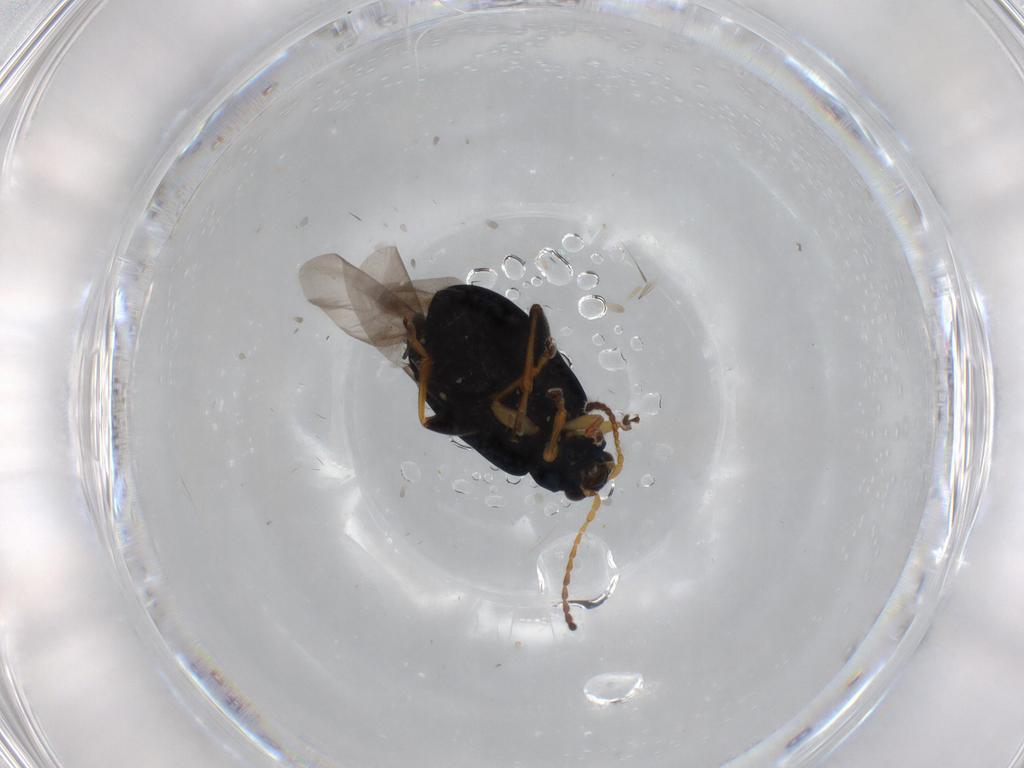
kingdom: Animalia
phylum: Arthropoda
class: Insecta
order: Coleoptera
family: Chrysomelidae
